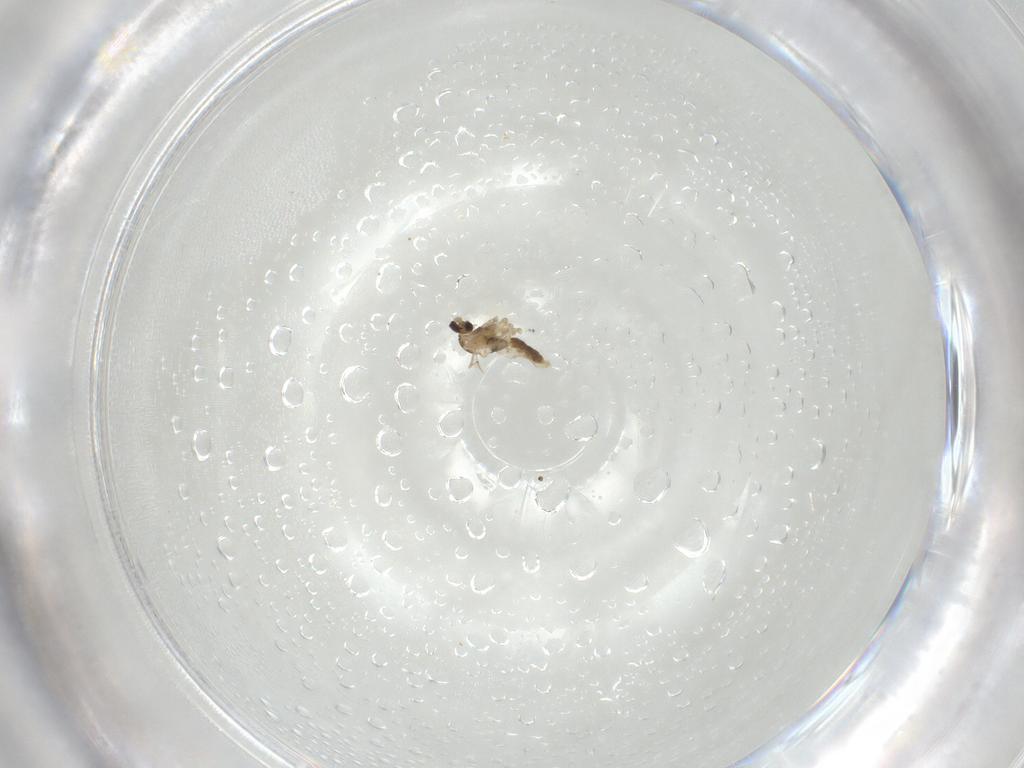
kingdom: Animalia
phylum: Arthropoda
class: Insecta
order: Diptera
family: Cecidomyiidae
